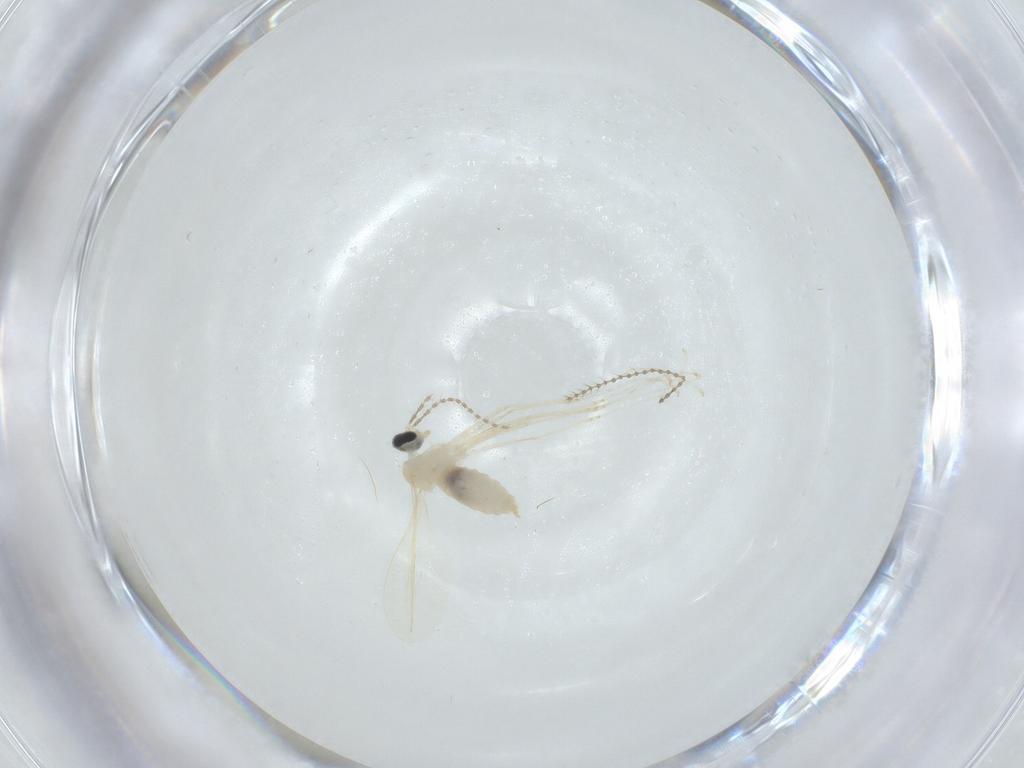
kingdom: Animalia
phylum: Arthropoda
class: Insecta
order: Diptera
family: Cecidomyiidae
